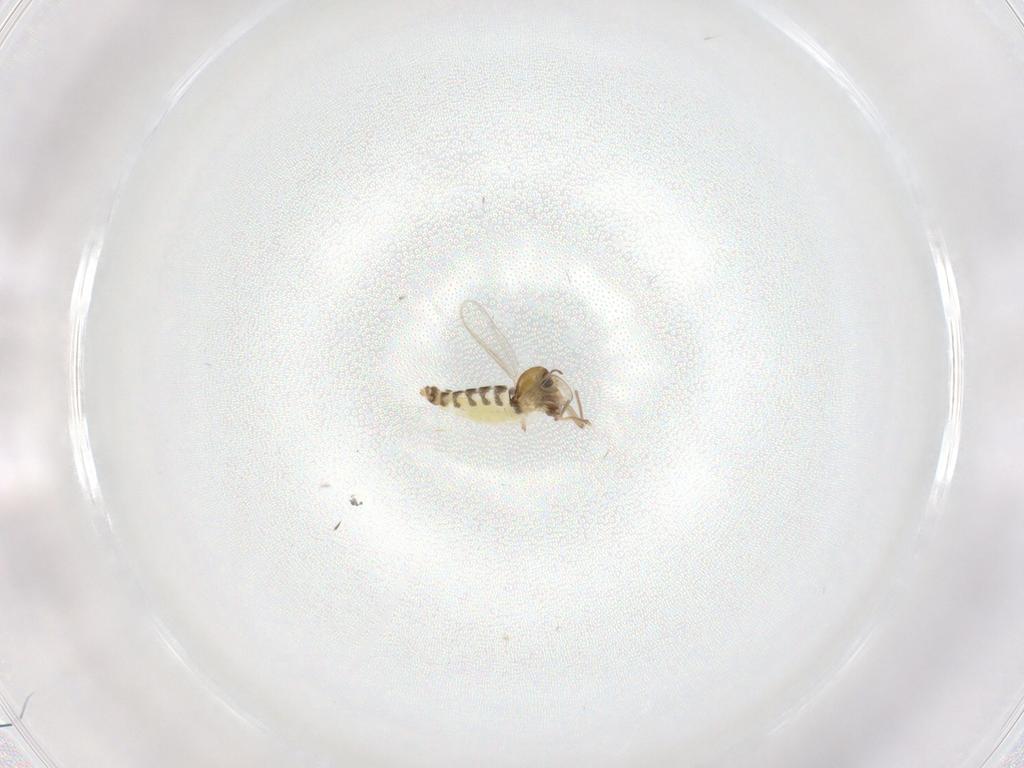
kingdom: Animalia
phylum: Arthropoda
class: Insecta
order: Diptera
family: Chironomidae
